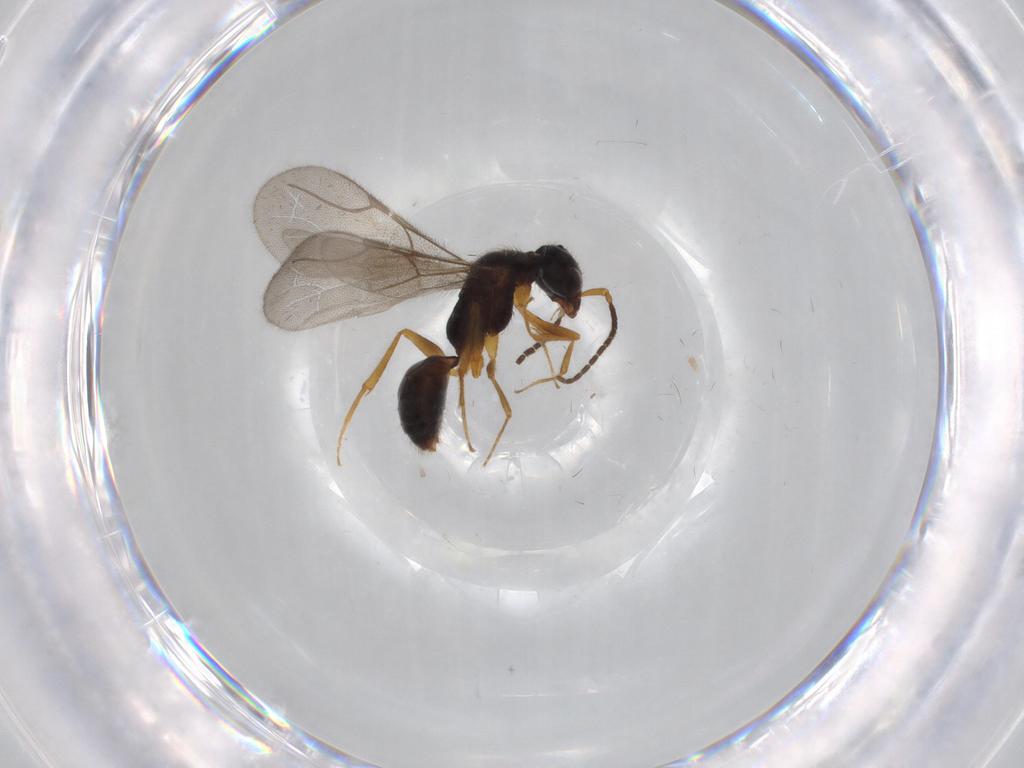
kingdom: Animalia
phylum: Arthropoda
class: Insecta
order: Hymenoptera
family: Bethylidae
